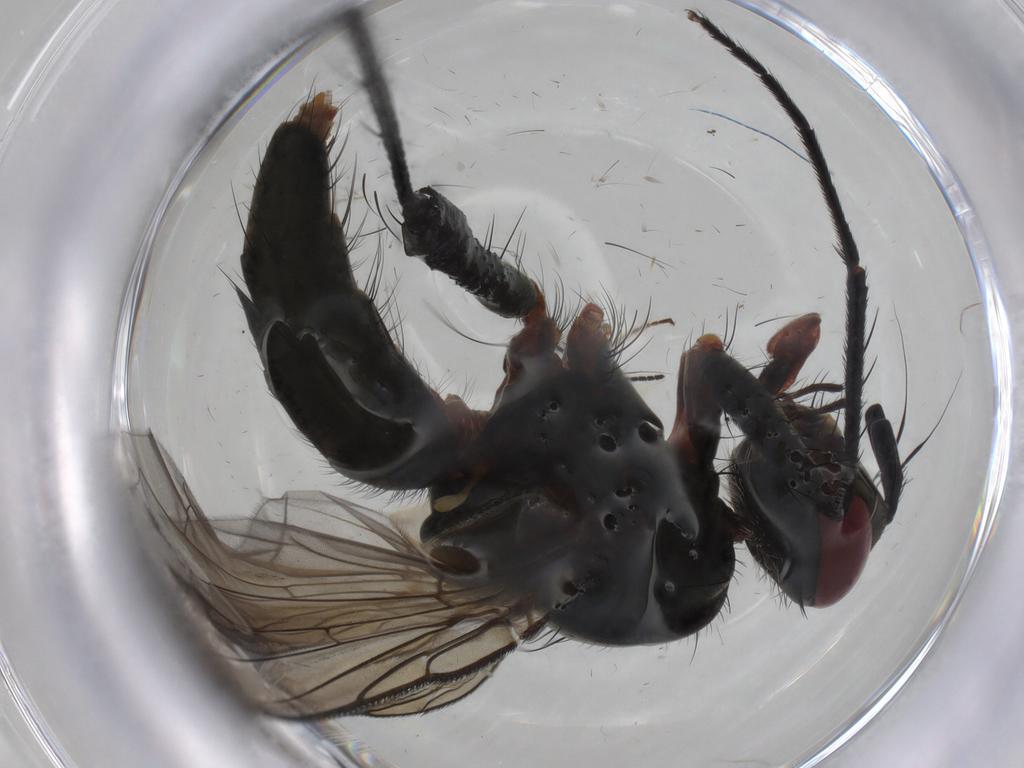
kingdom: Animalia
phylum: Arthropoda
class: Insecta
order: Diptera
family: Tachinidae
